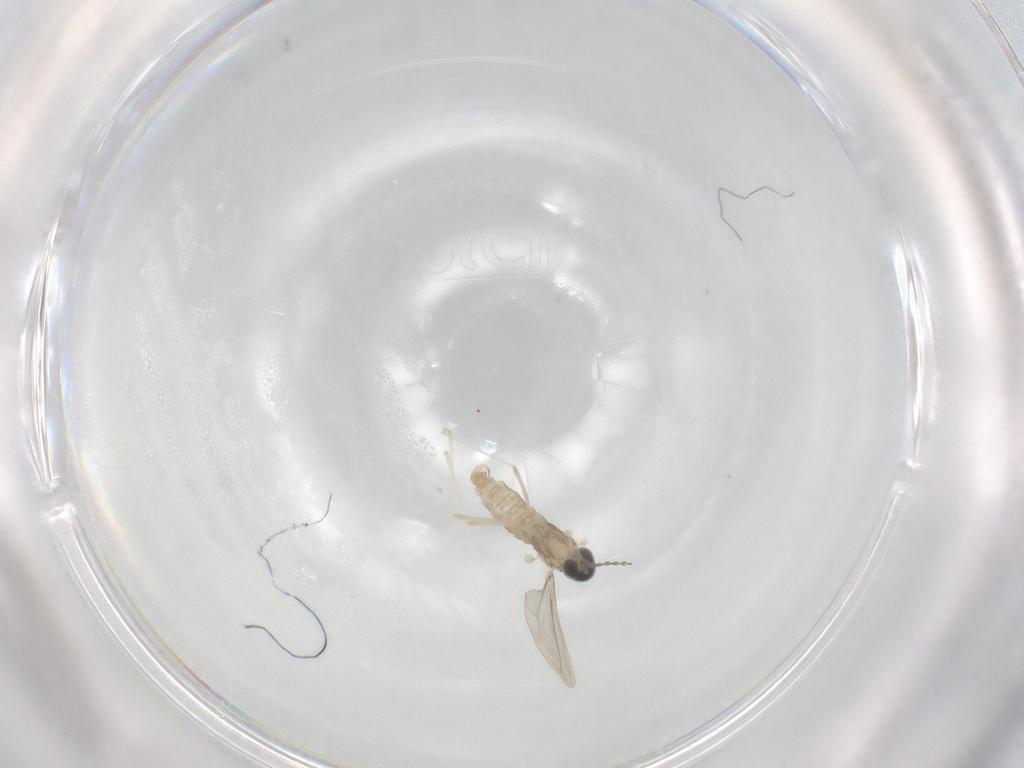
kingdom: Animalia
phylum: Arthropoda
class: Insecta
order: Diptera
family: Cecidomyiidae
